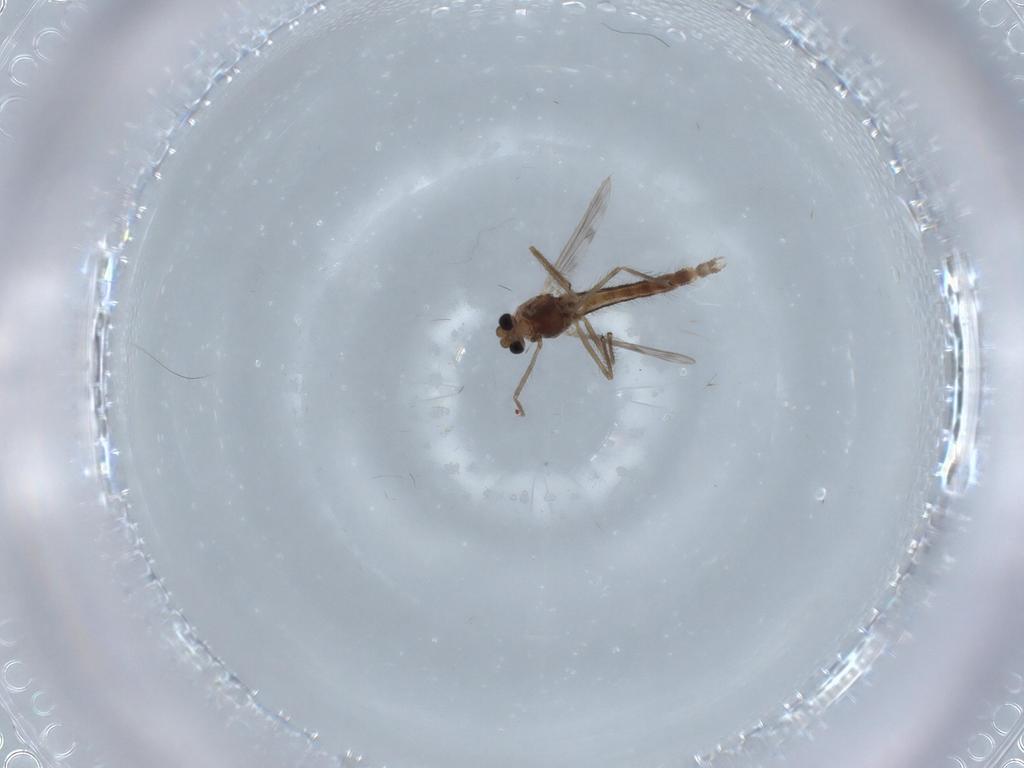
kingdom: Animalia
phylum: Arthropoda
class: Insecta
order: Diptera
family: Chironomidae
